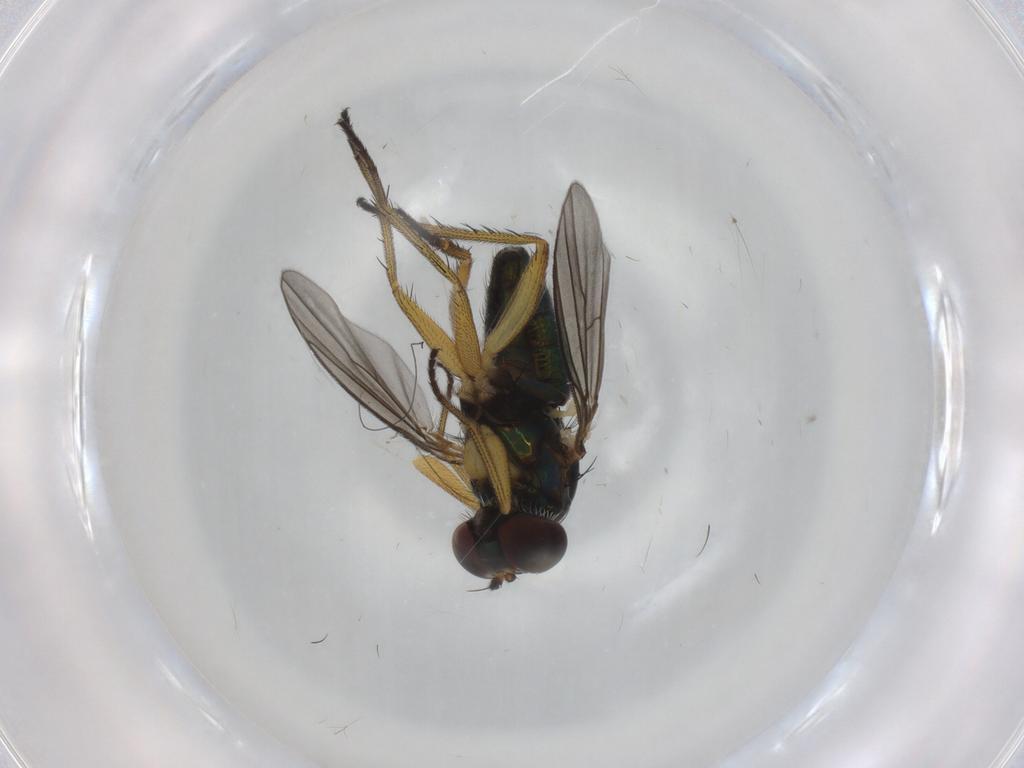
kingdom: Animalia
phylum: Arthropoda
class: Insecta
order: Diptera
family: Dolichopodidae
